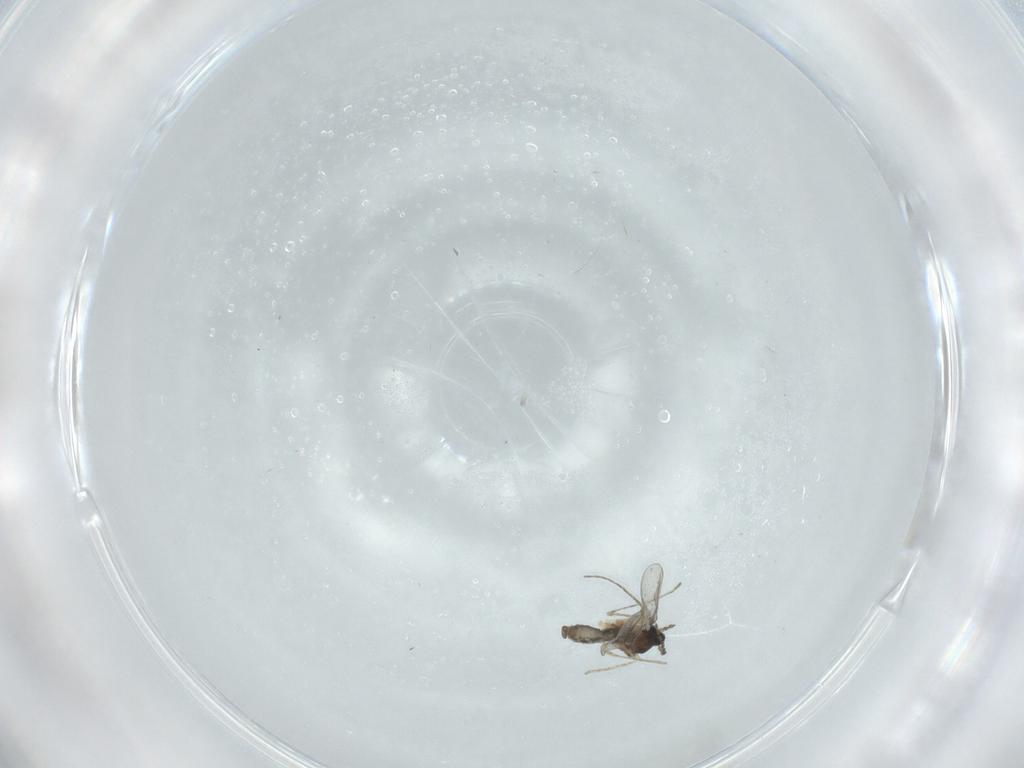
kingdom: Animalia
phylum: Arthropoda
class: Insecta
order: Diptera
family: Cecidomyiidae
